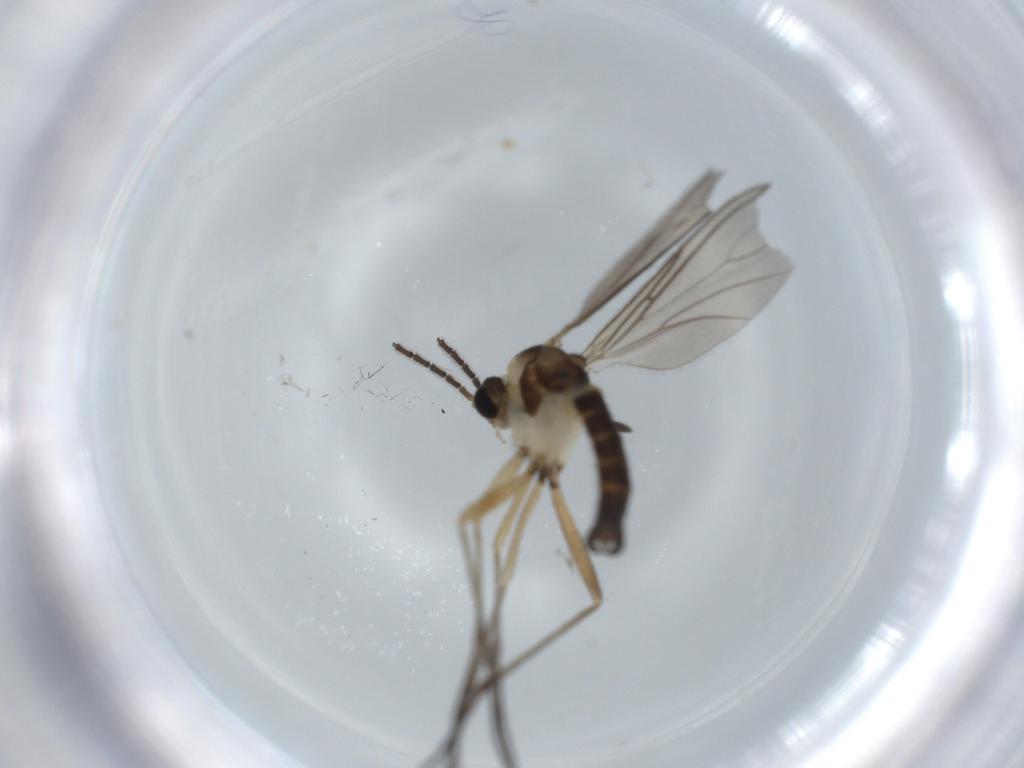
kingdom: Animalia
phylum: Arthropoda
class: Insecta
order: Diptera
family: Sciaridae
